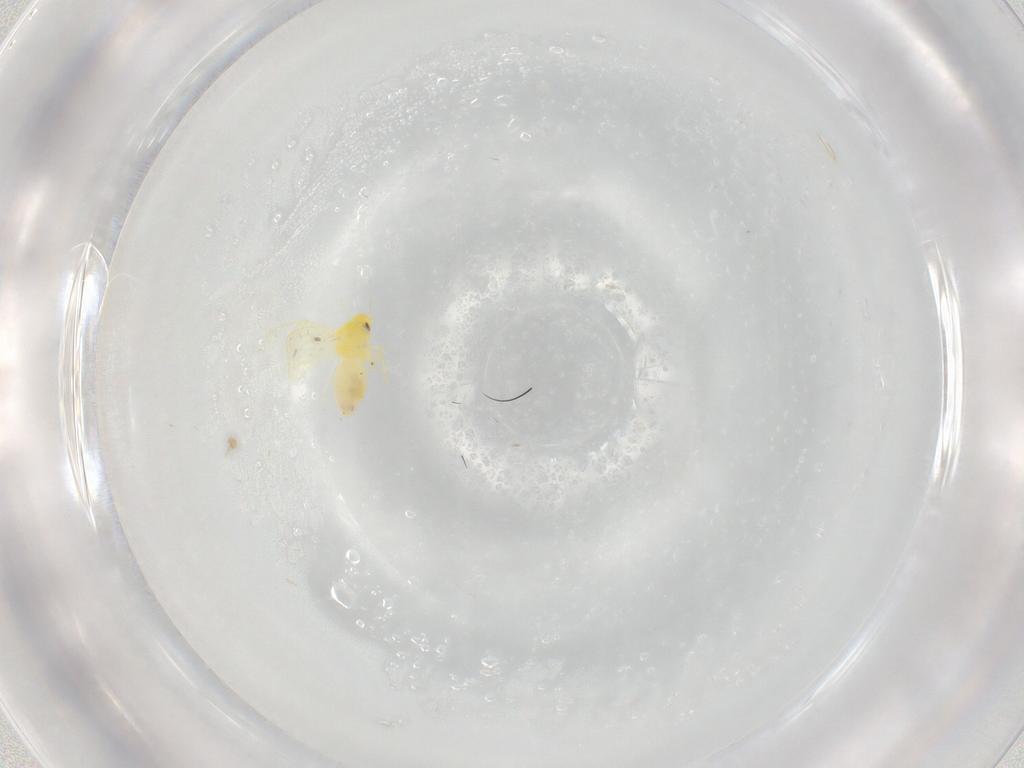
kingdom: Animalia
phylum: Arthropoda
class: Insecta
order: Hemiptera
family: Aleyrodidae
